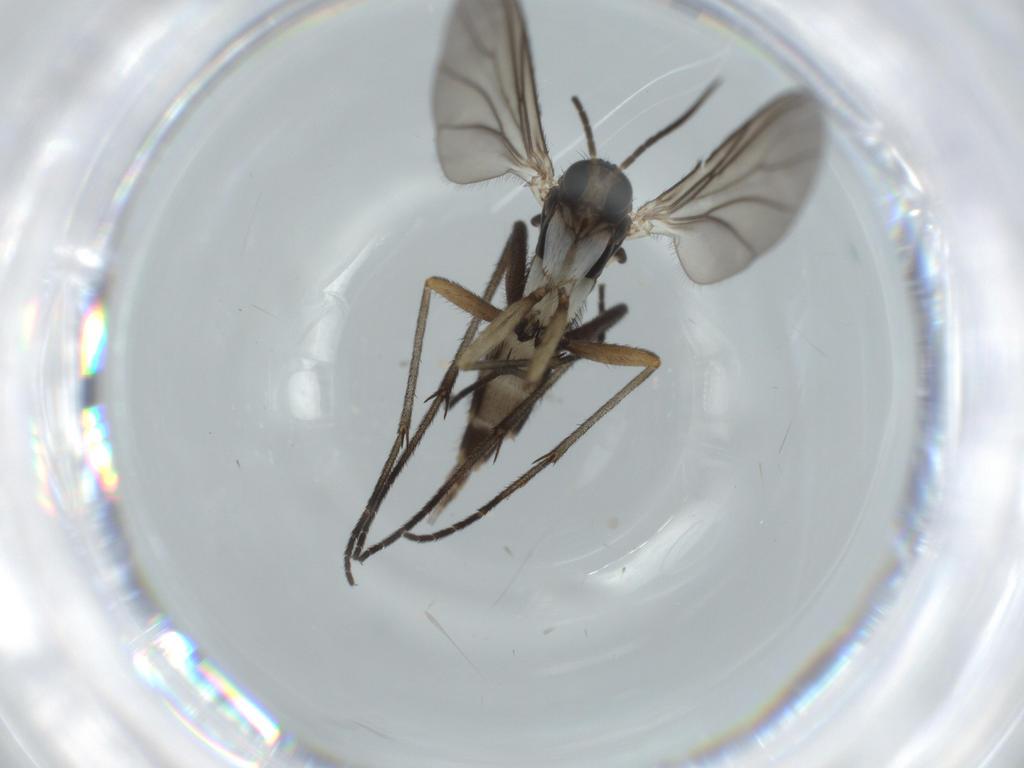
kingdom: Animalia
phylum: Arthropoda
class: Insecta
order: Diptera
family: Sciaridae
